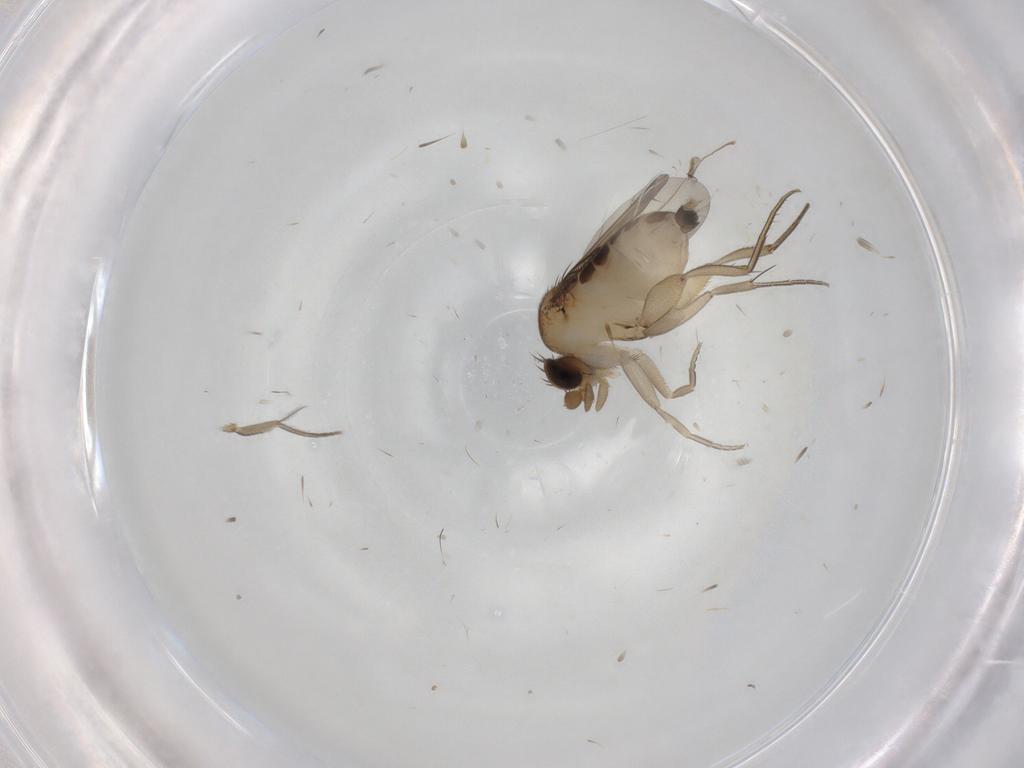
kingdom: Animalia
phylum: Arthropoda
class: Insecta
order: Diptera
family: Phoridae
